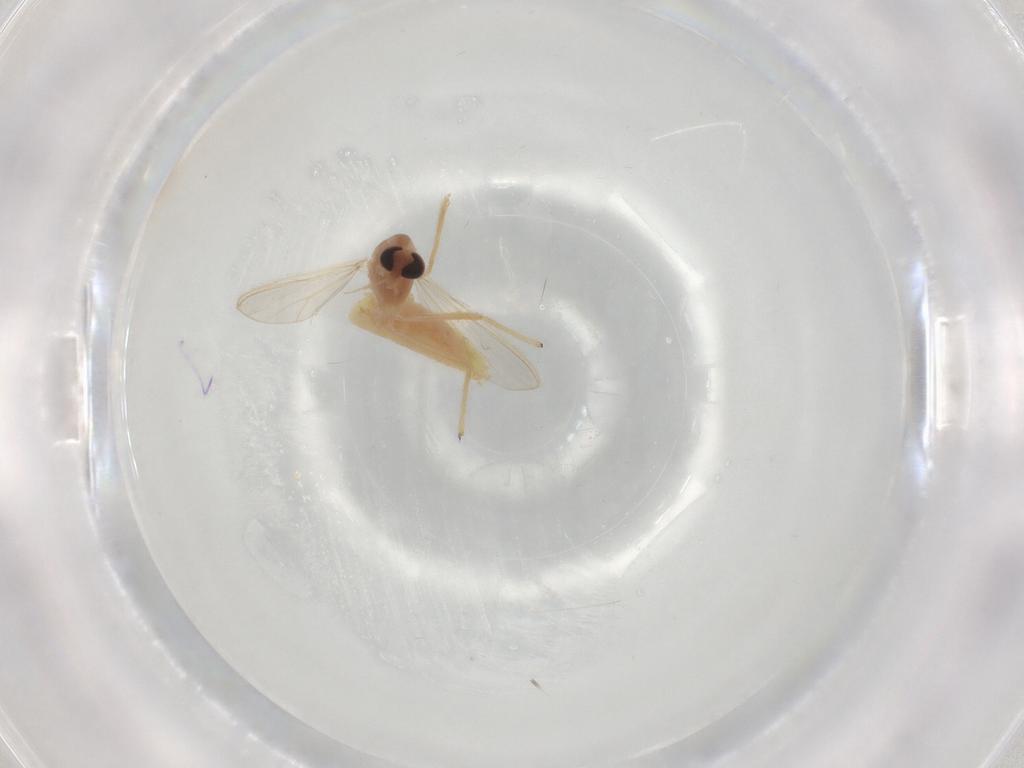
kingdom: Animalia
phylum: Arthropoda
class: Insecta
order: Diptera
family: Chironomidae
